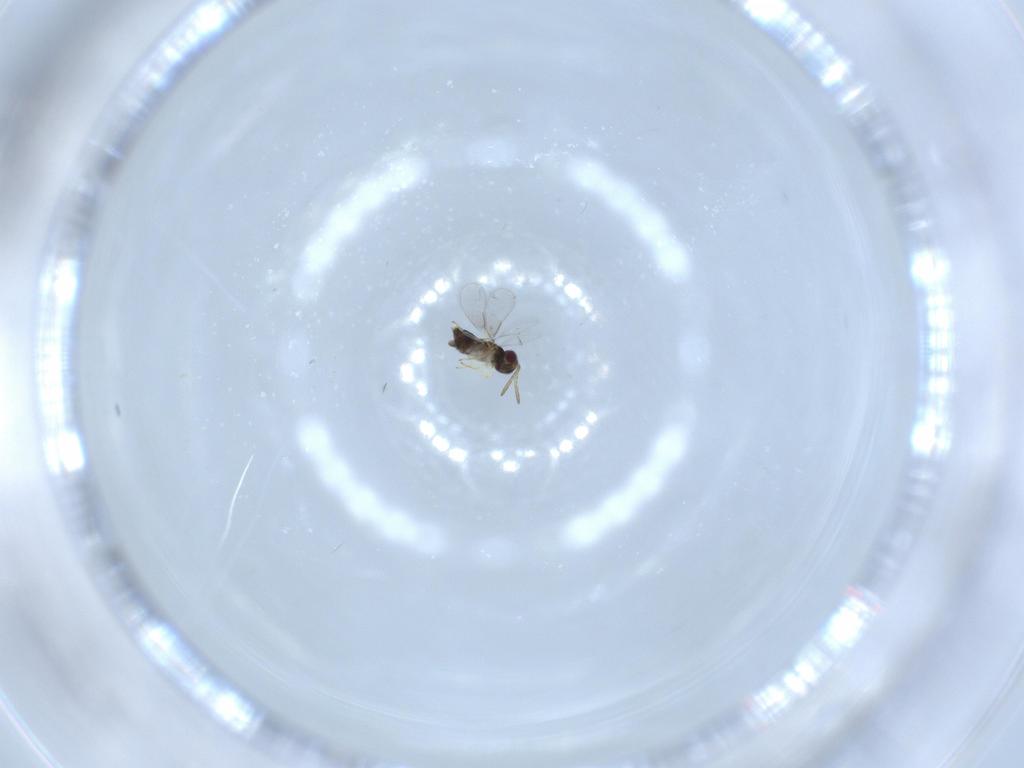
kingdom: Animalia
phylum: Arthropoda
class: Insecta
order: Hymenoptera
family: Aphelinidae
